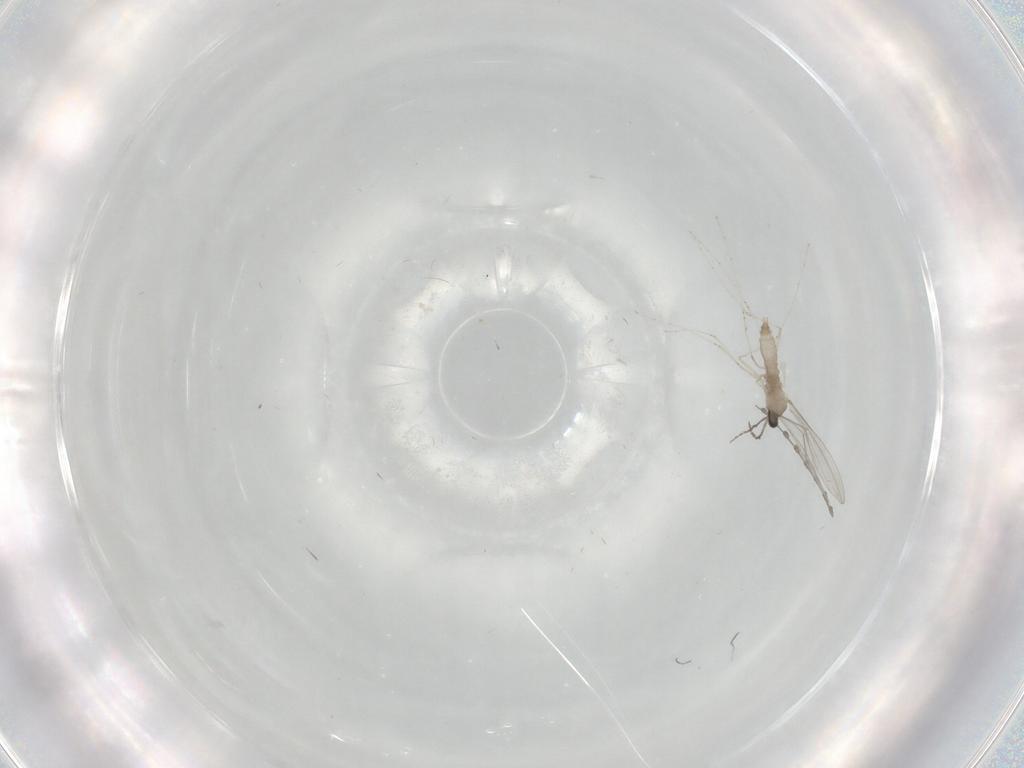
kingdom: Animalia
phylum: Arthropoda
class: Insecta
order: Diptera
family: Cecidomyiidae
